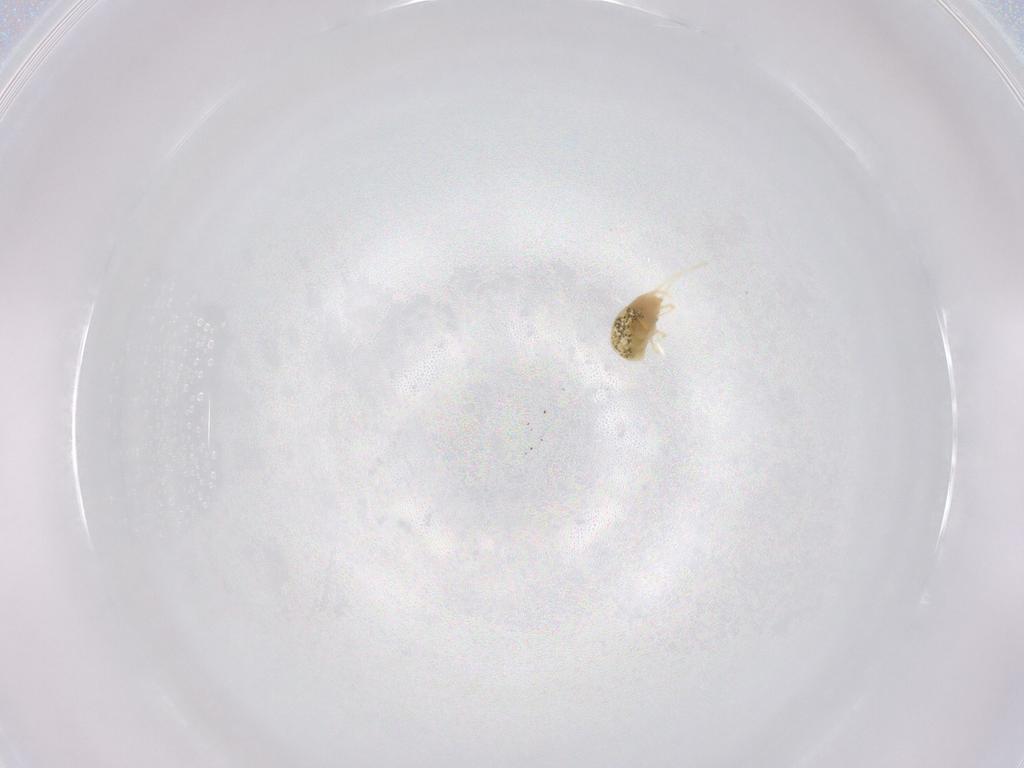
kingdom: Animalia
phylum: Arthropoda
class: Arachnida
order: Trombidiformes
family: Tetranychidae
